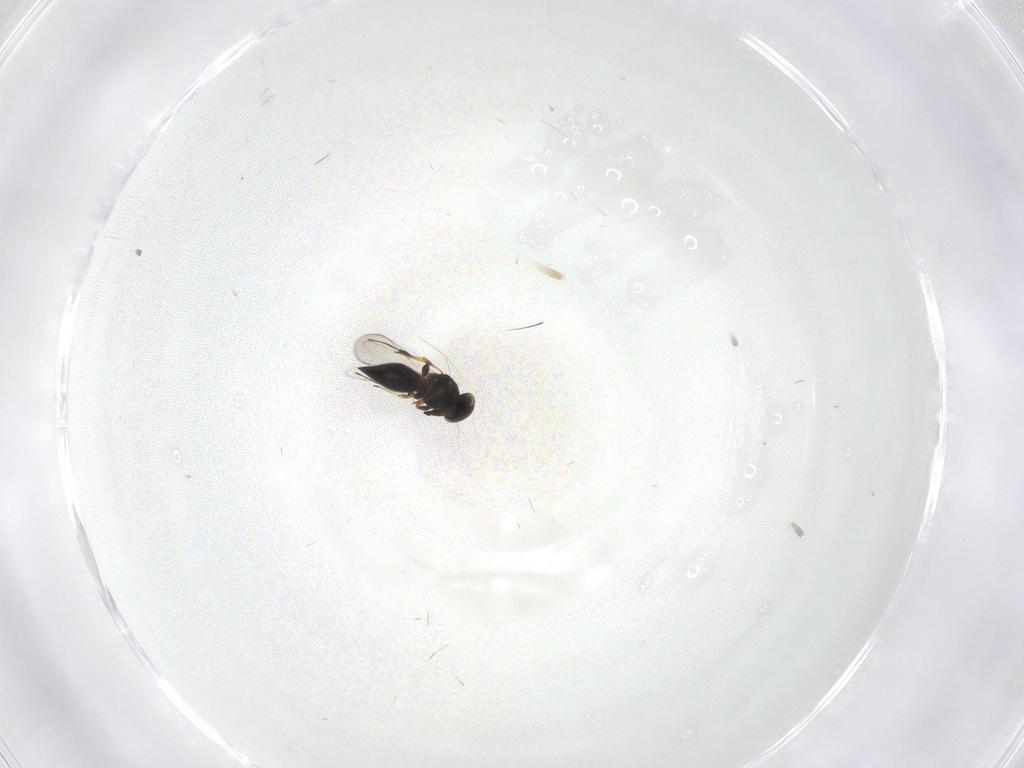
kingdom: Animalia
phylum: Arthropoda
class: Insecta
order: Hymenoptera
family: Platygastridae
